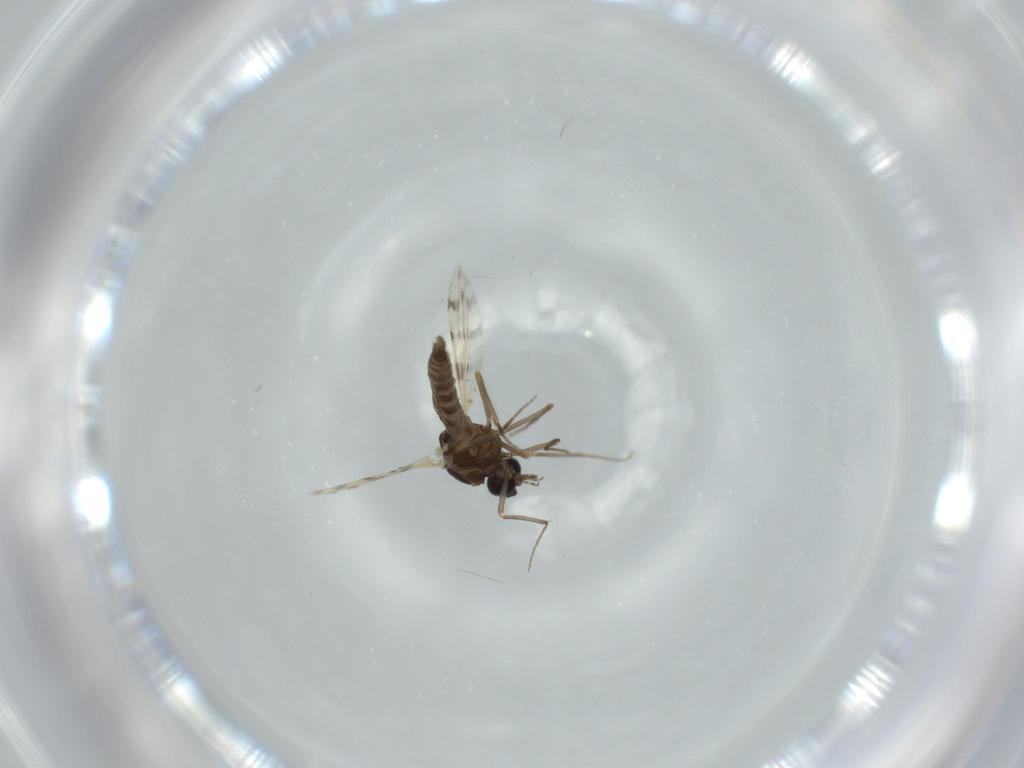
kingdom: Animalia
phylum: Arthropoda
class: Insecta
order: Diptera
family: Ceratopogonidae
